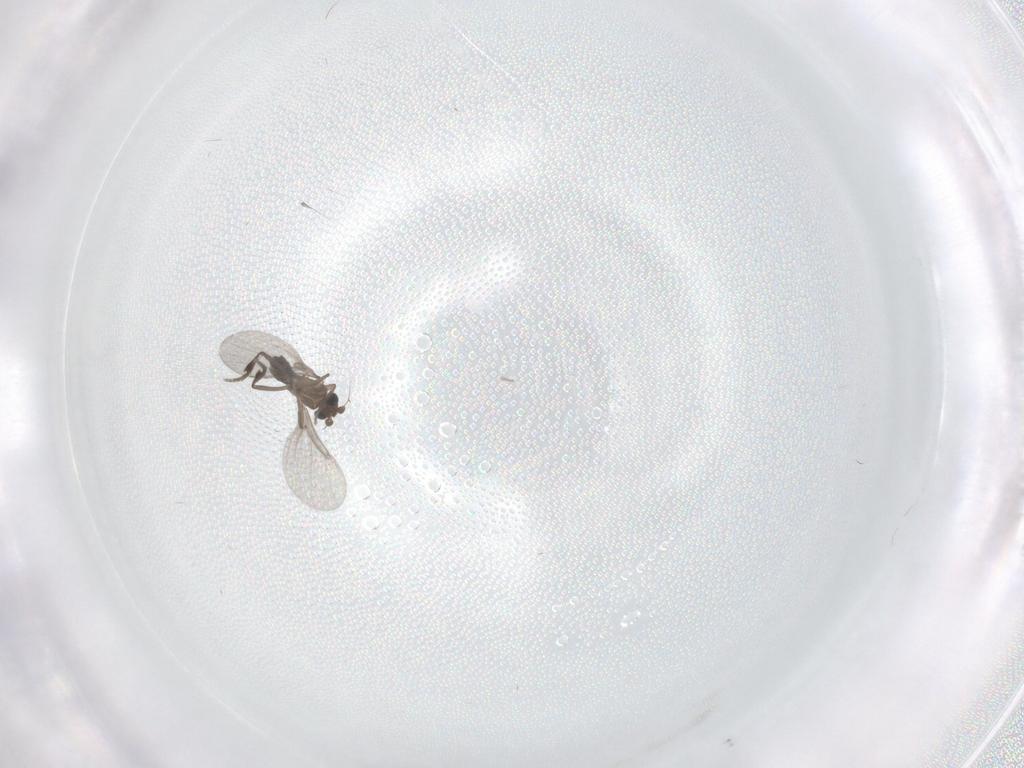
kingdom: Animalia
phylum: Arthropoda
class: Insecta
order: Diptera
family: Phoridae
